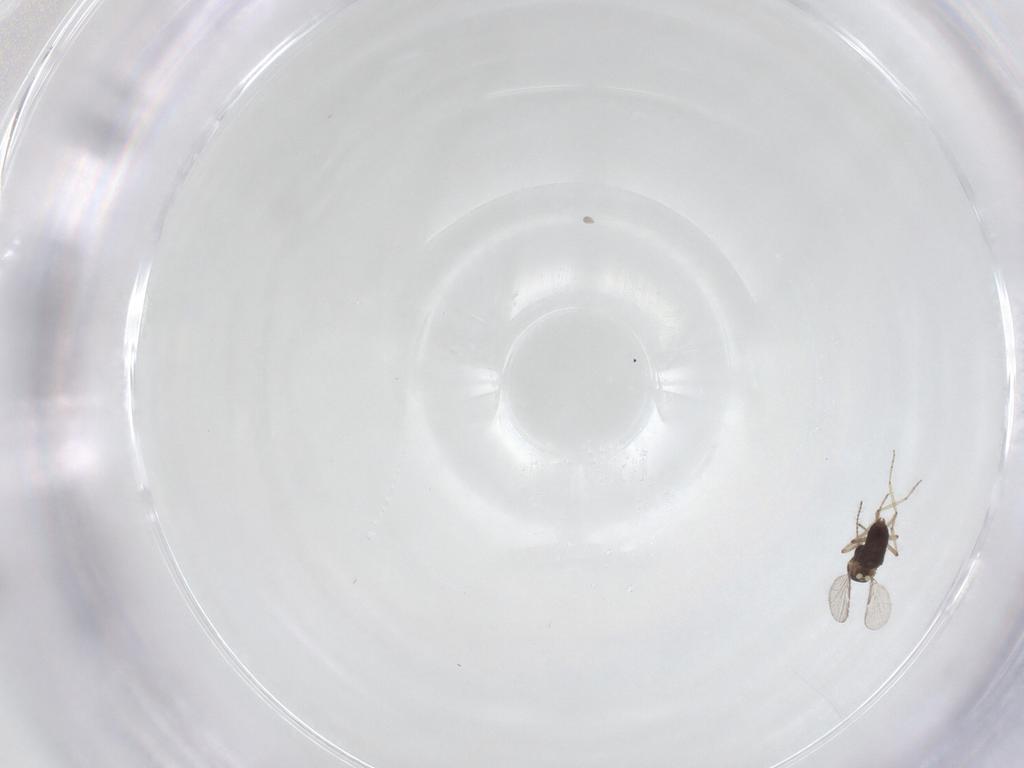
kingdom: Animalia
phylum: Arthropoda
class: Insecta
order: Diptera
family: Ceratopogonidae
